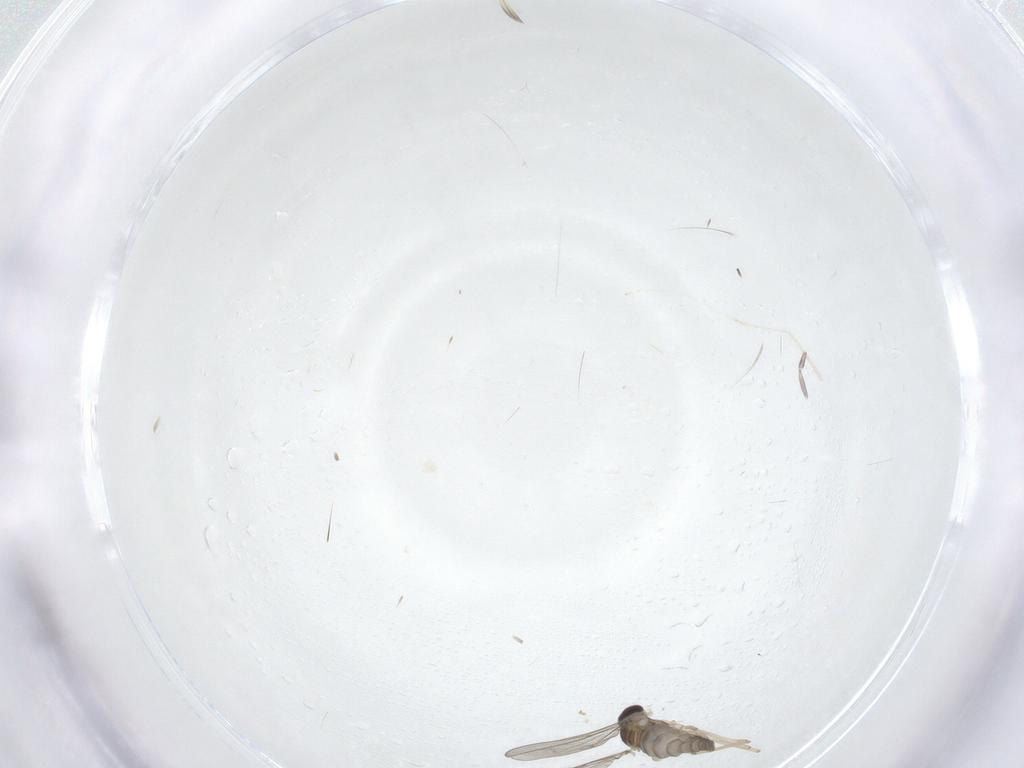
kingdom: Animalia
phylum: Arthropoda
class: Insecta
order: Diptera
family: Cecidomyiidae
